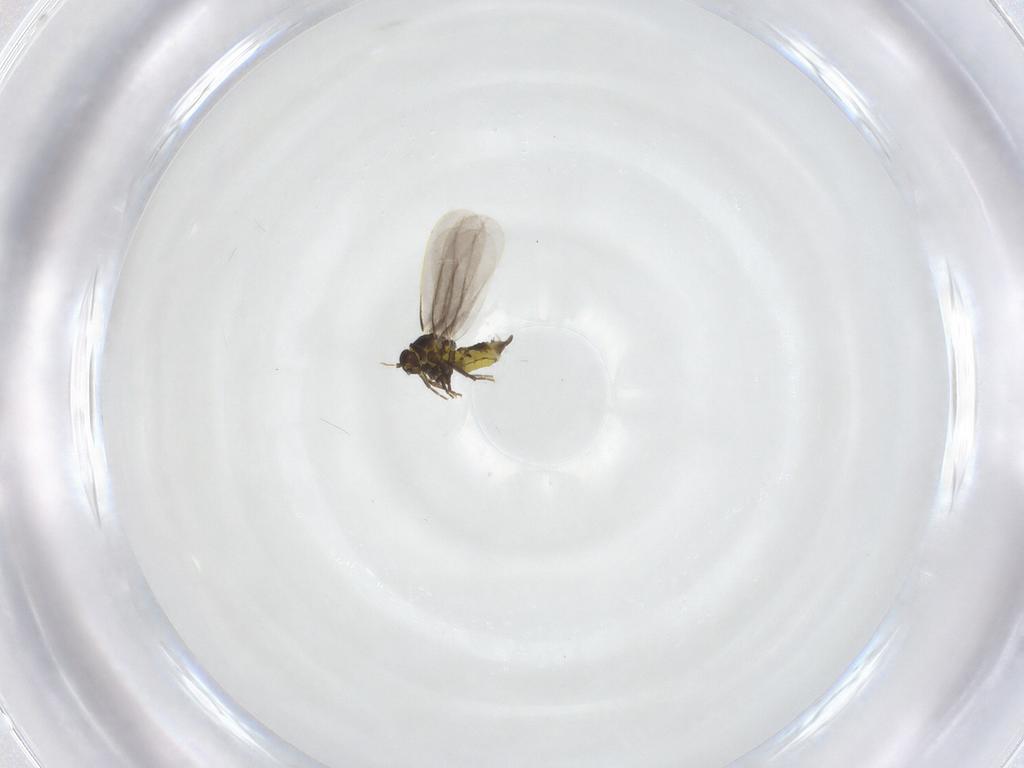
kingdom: Animalia
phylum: Arthropoda
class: Insecta
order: Hemiptera
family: Aleyrodidae
